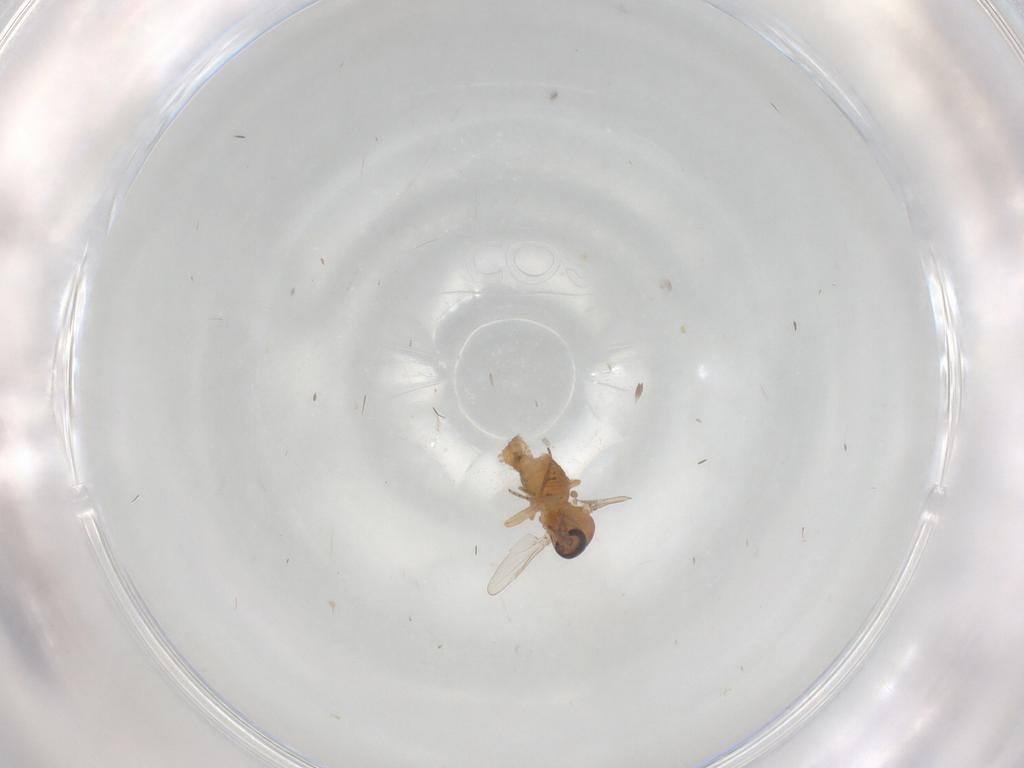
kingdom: Animalia
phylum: Arthropoda
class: Insecta
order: Diptera
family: Ceratopogonidae
